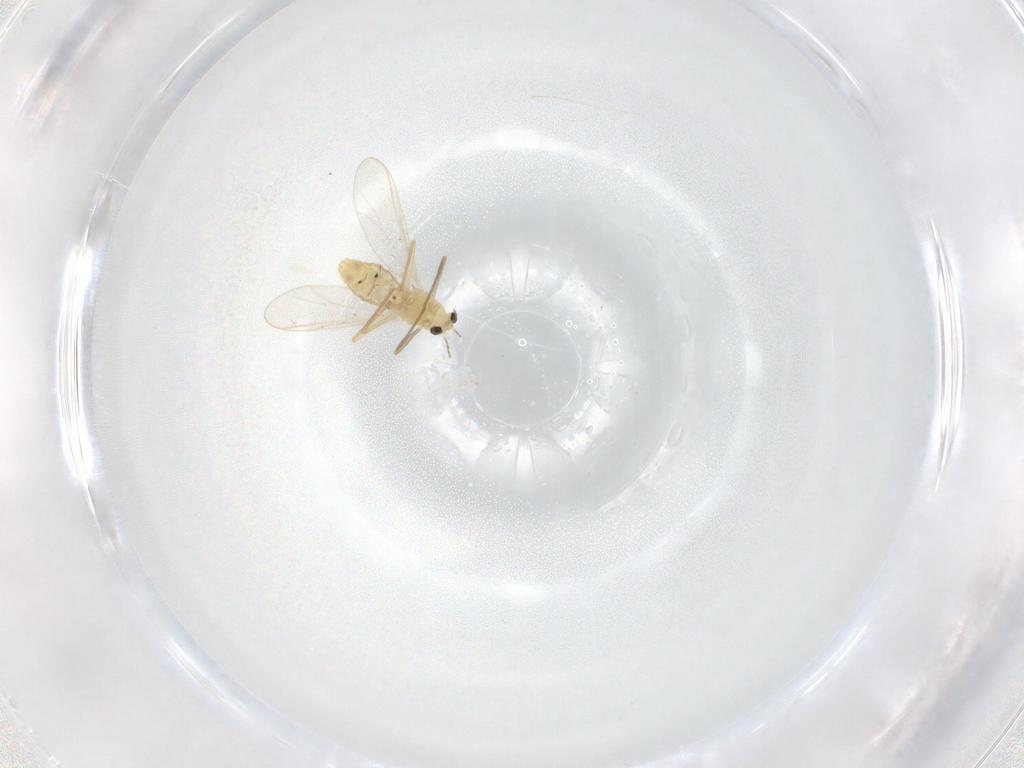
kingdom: Animalia
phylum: Arthropoda
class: Insecta
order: Diptera
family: Chironomidae
